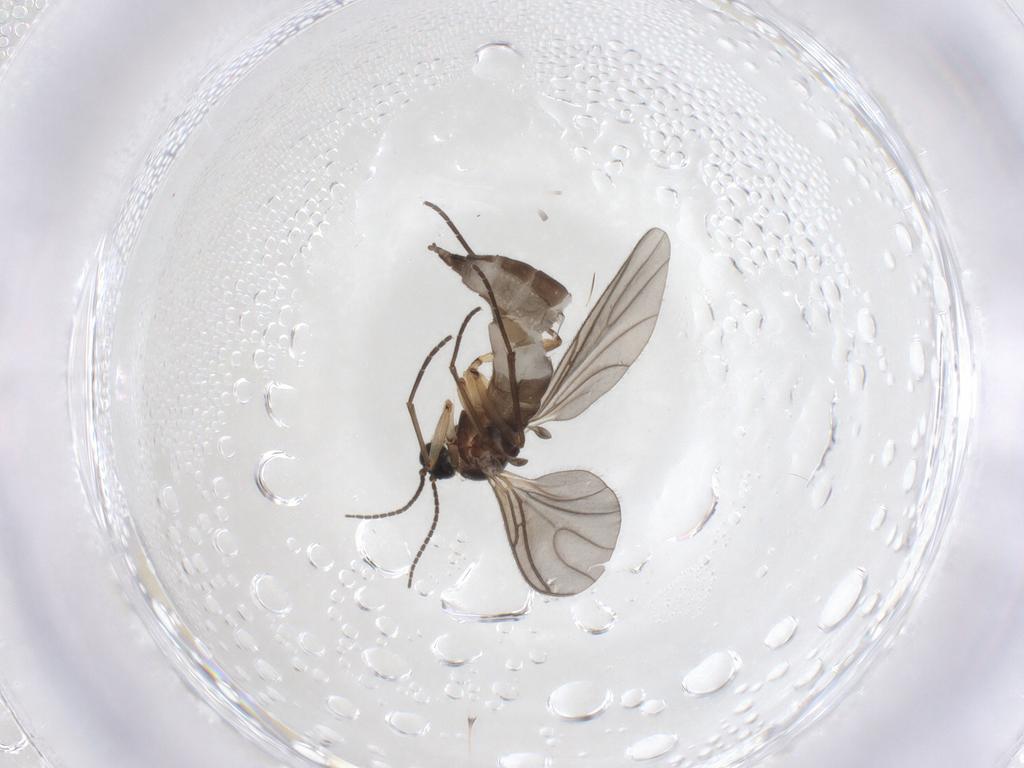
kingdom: Animalia
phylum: Arthropoda
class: Insecta
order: Diptera
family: Sciaridae
